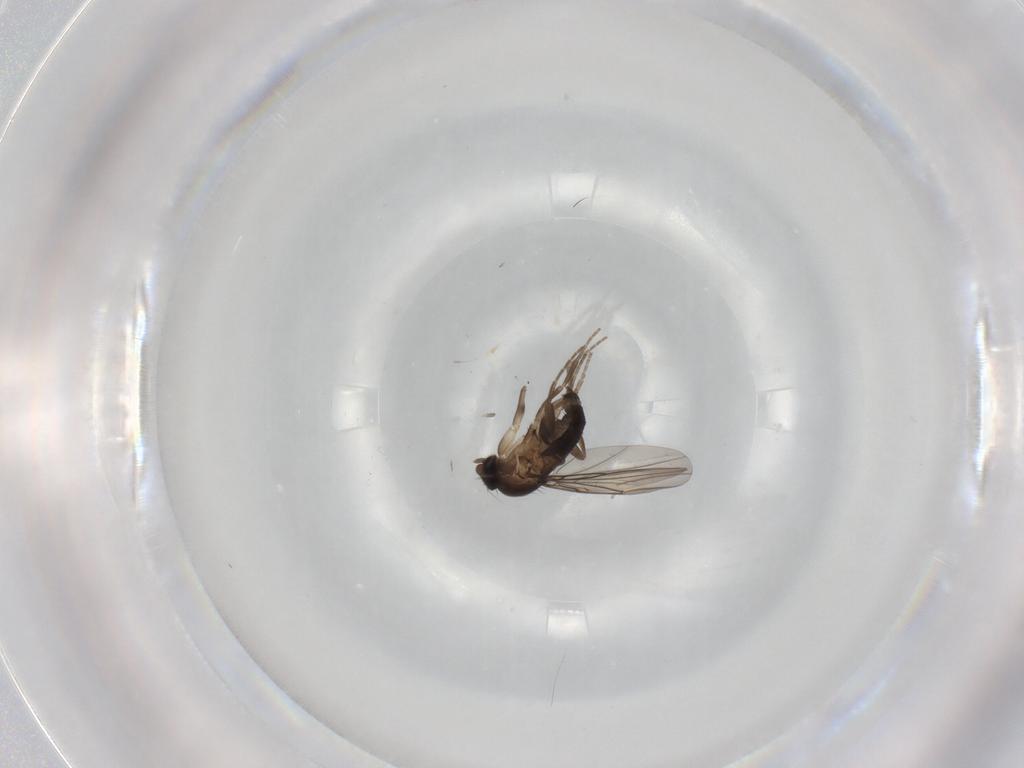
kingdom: Animalia
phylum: Arthropoda
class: Insecta
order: Diptera
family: Phoridae
